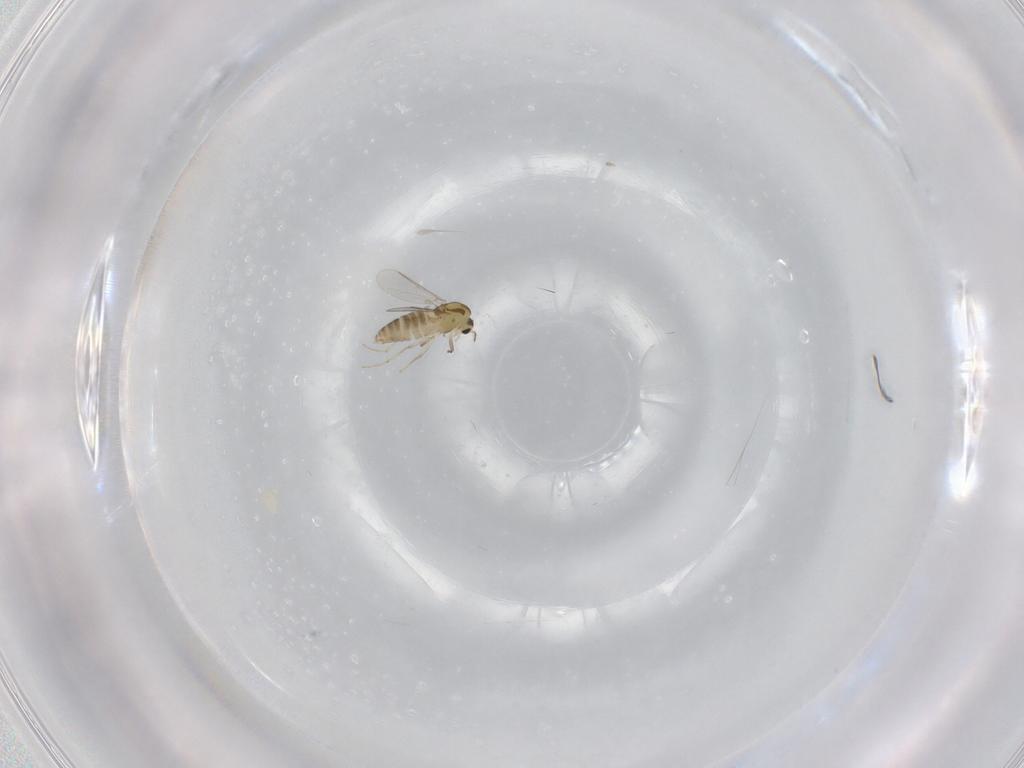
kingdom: Animalia
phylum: Arthropoda
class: Insecta
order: Diptera
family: Chironomidae
